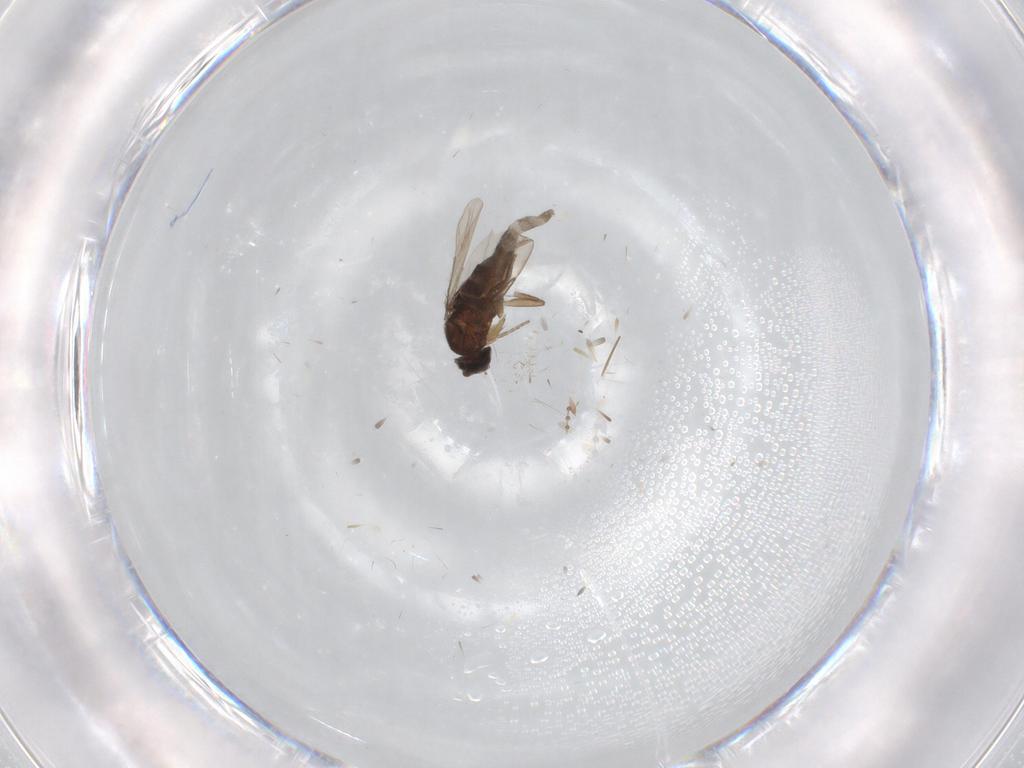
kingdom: Animalia
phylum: Arthropoda
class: Insecta
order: Diptera
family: Cecidomyiidae
